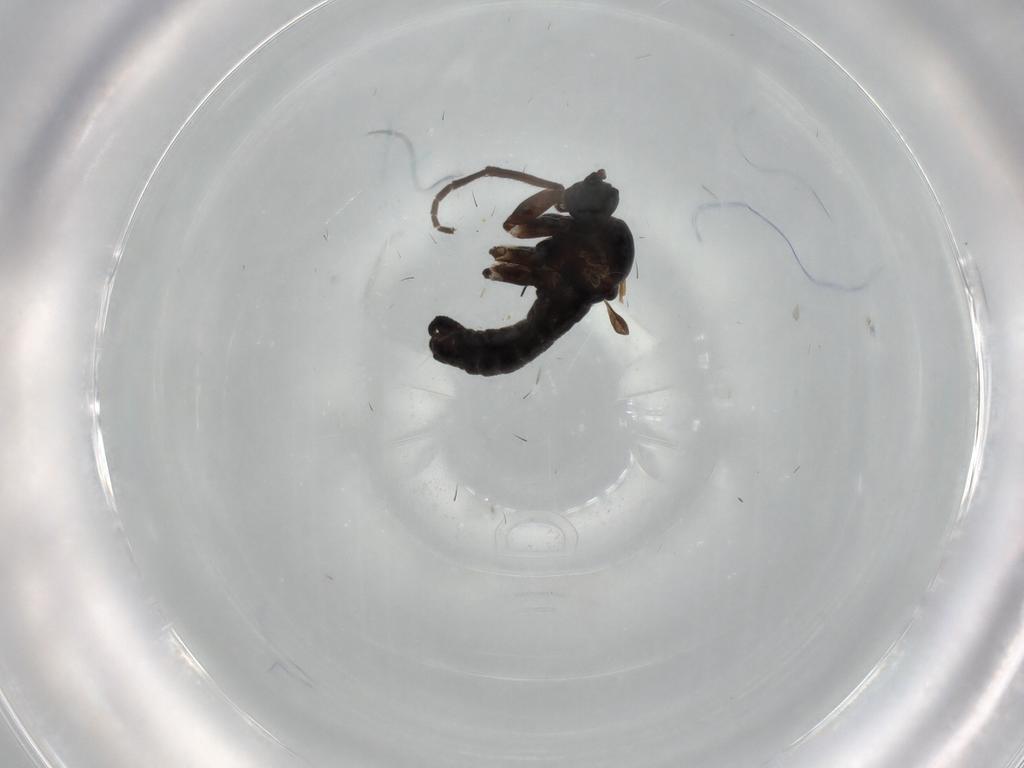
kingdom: Animalia
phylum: Arthropoda
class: Insecta
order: Diptera
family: Sciaridae
